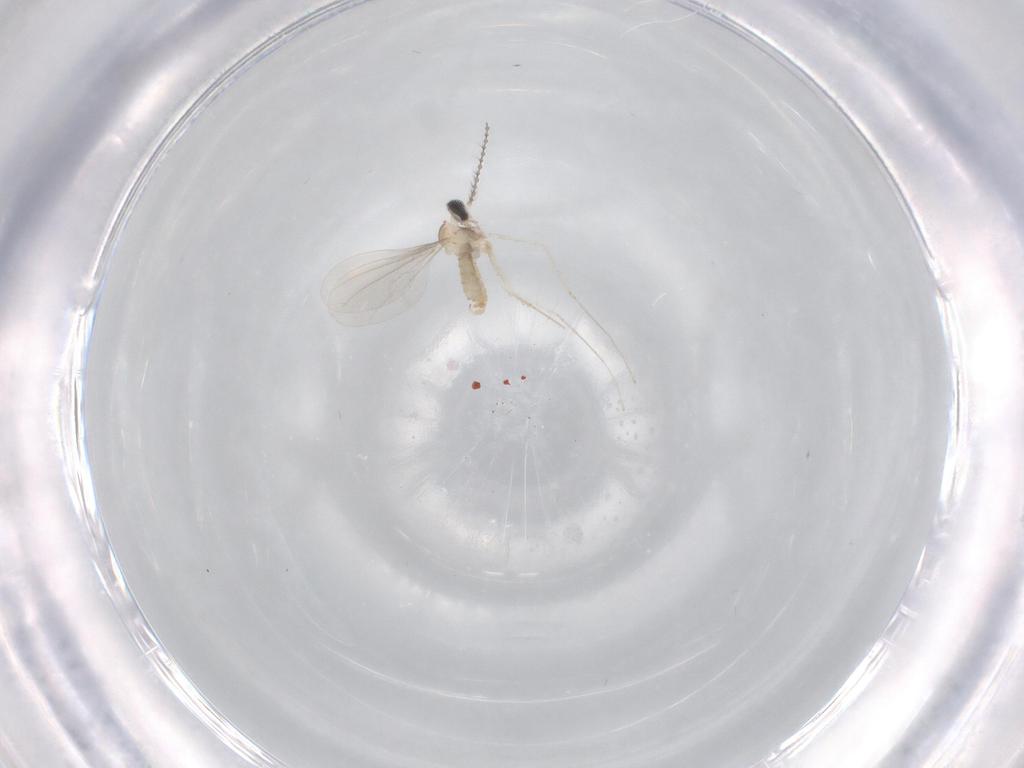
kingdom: Animalia
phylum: Arthropoda
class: Insecta
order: Diptera
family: Cecidomyiidae
